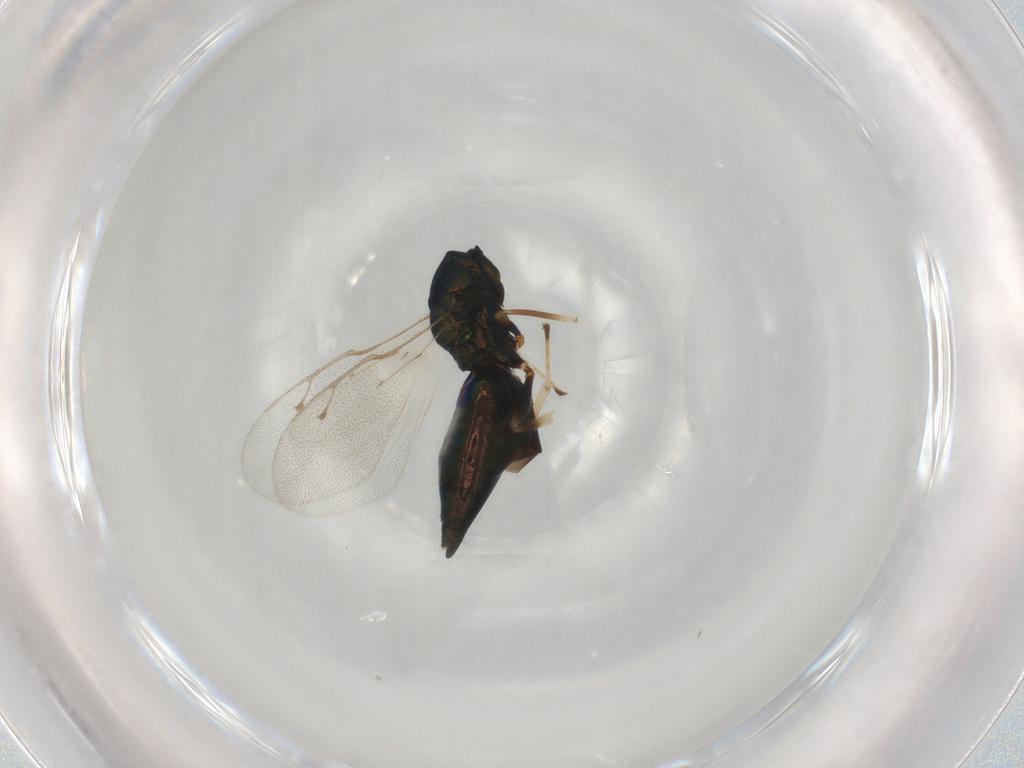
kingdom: Animalia
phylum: Arthropoda
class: Insecta
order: Hymenoptera
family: Pteromalidae
